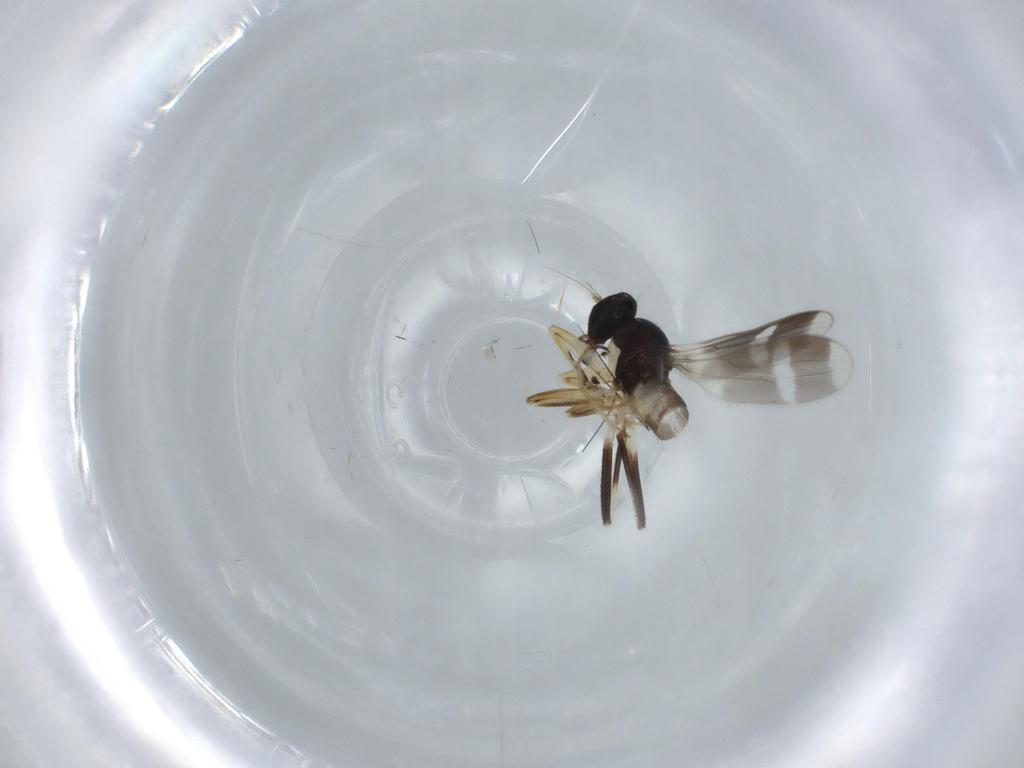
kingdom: Animalia
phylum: Arthropoda
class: Insecta
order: Diptera
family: Hybotidae
